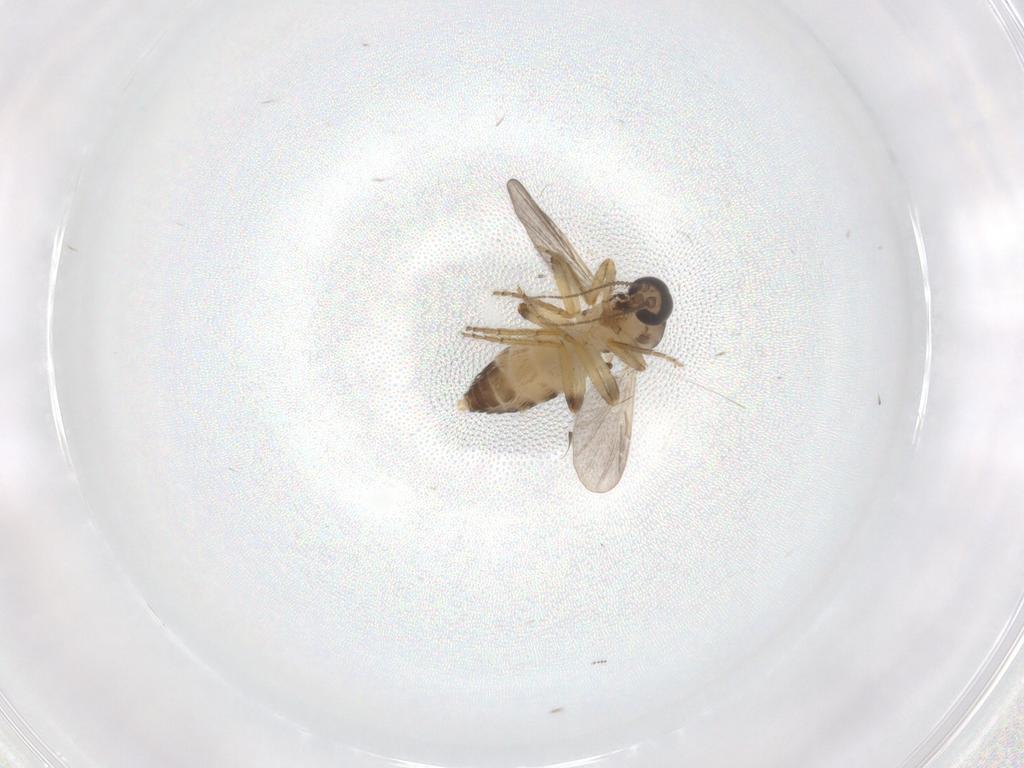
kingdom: Animalia
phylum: Arthropoda
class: Insecta
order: Diptera
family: Ceratopogonidae
